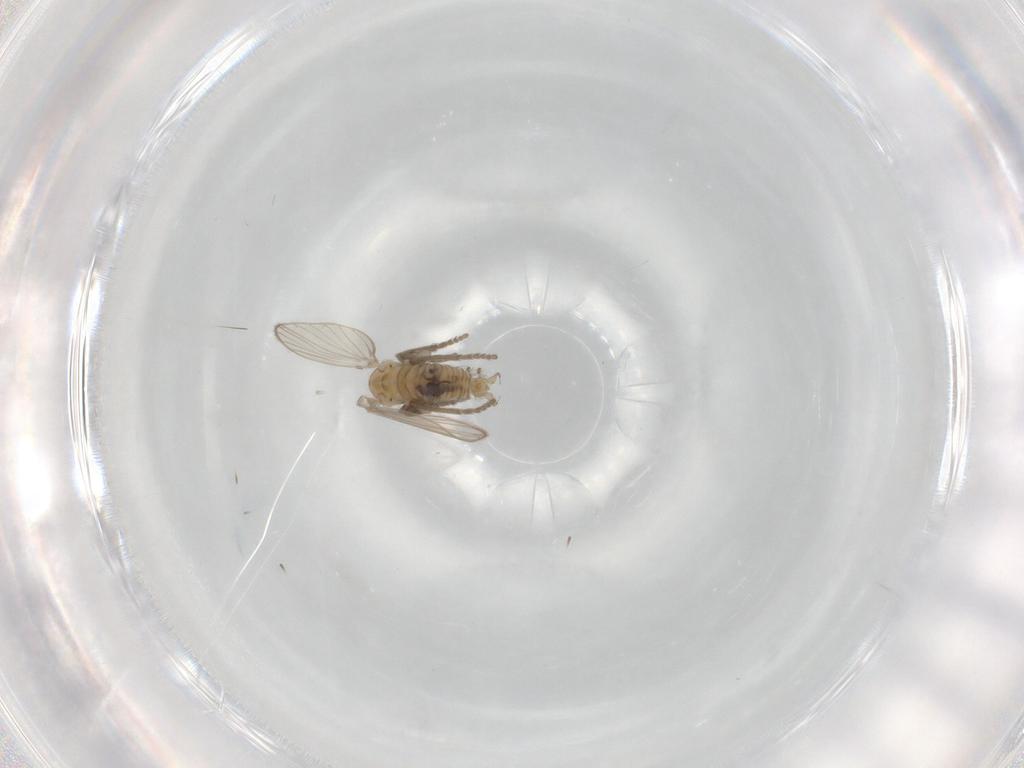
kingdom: Animalia
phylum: Arthropoda
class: Insecta
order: Diptera
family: Psychodidae
